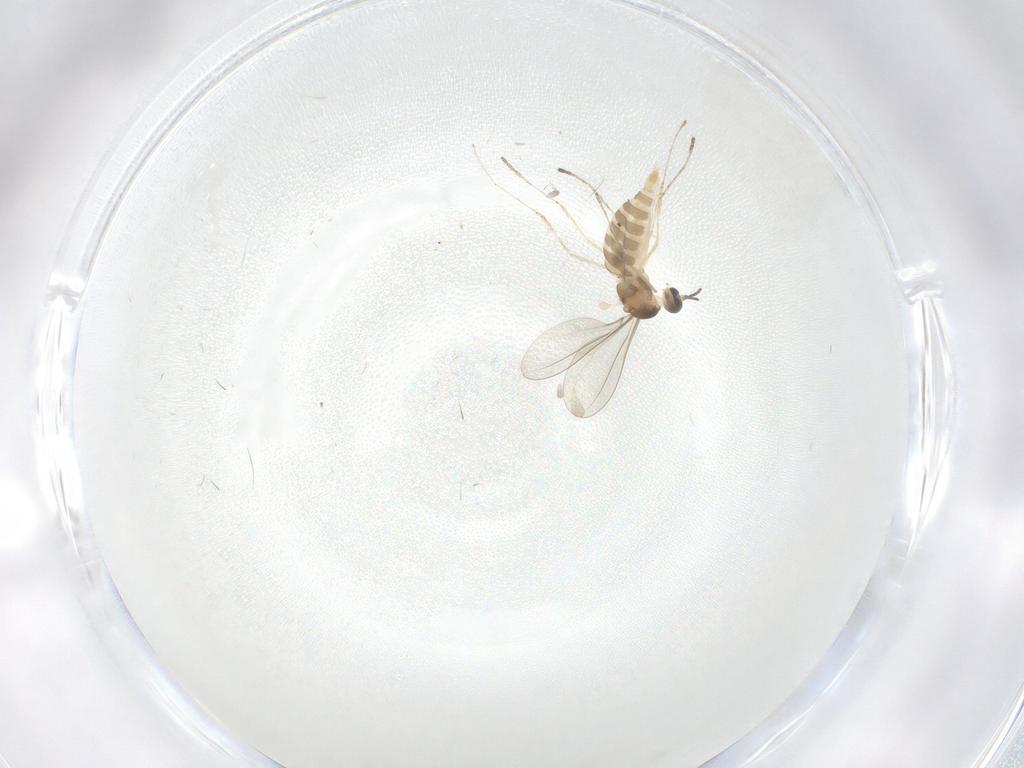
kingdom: Animalia
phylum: Arthropoda
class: Insecta
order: Diptera
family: Cecidomyiidae
